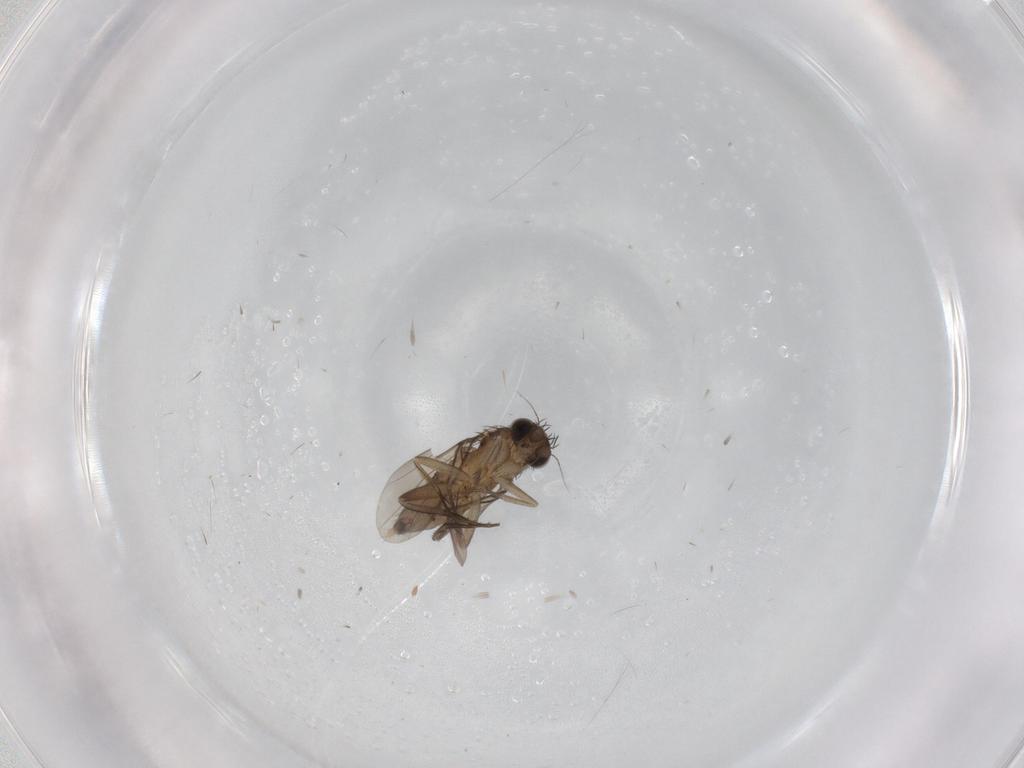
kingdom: Animalia
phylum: Arthropoda
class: Insecta
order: Diptera
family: Phoridae
